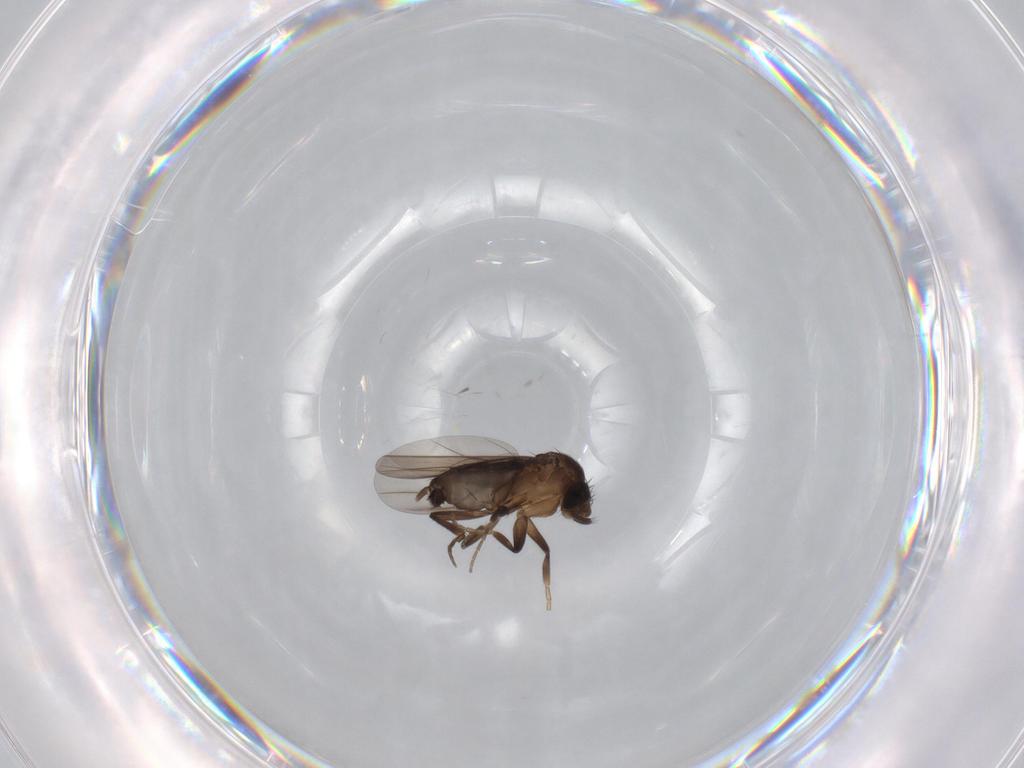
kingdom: Animalia
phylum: Arthropoda
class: Insecta
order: Diptera
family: Phoridae
